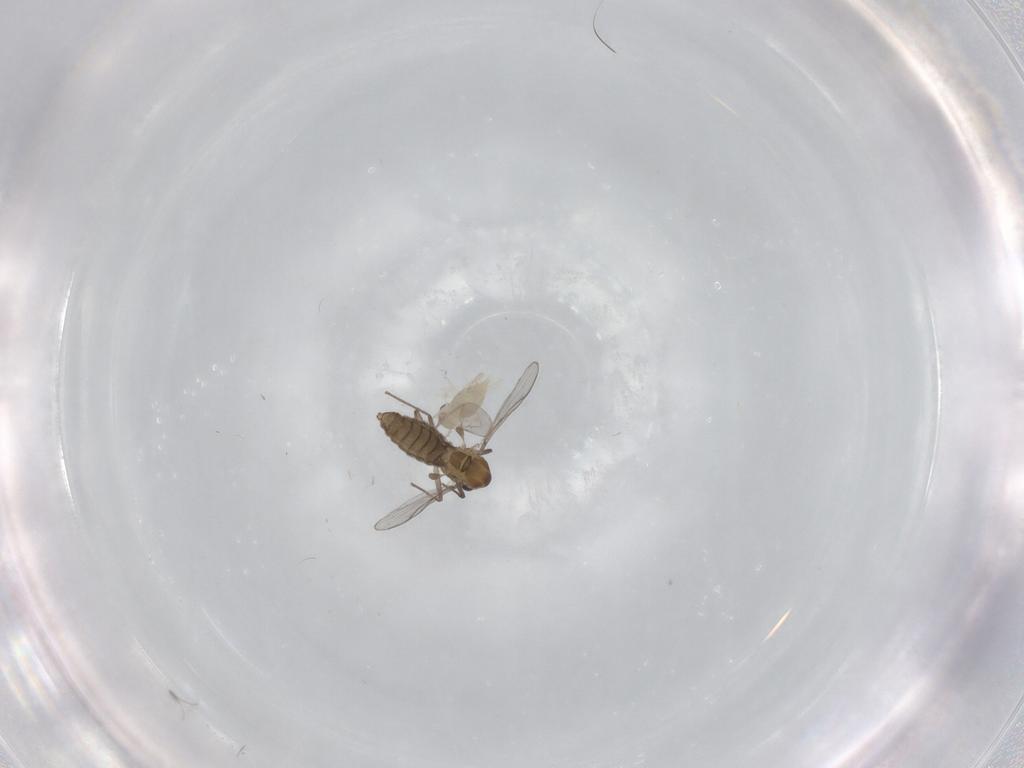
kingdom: Animalia
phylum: Arthropoda
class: Insecta
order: Diptera
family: Chironomidae
